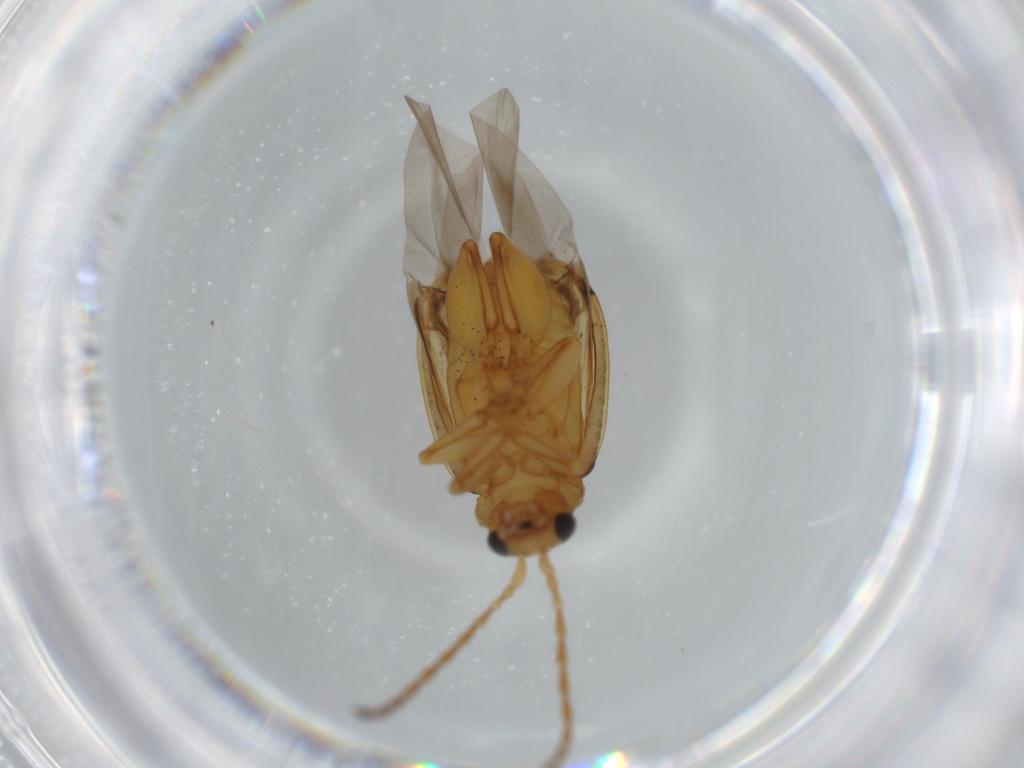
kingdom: Animalia
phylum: Arthropoda
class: Insecta
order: Coleoptera
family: Chrysomelidae
